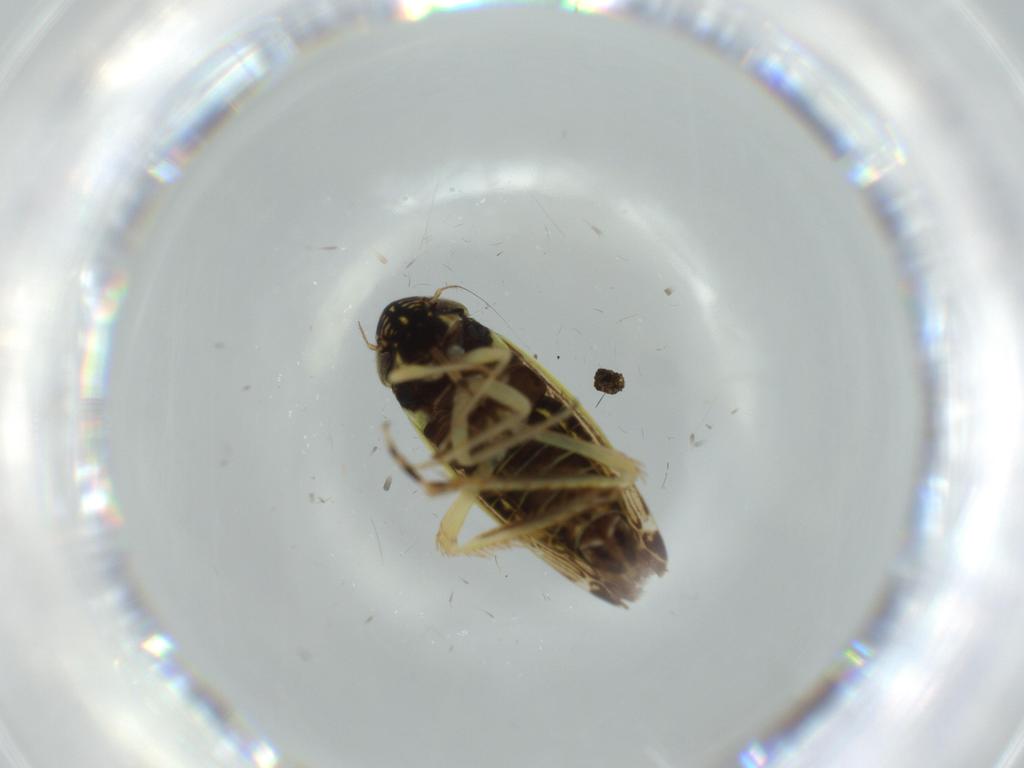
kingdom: Animalia
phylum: Arthropoda
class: Insecta
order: Hemiptera
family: Cicadellidae
